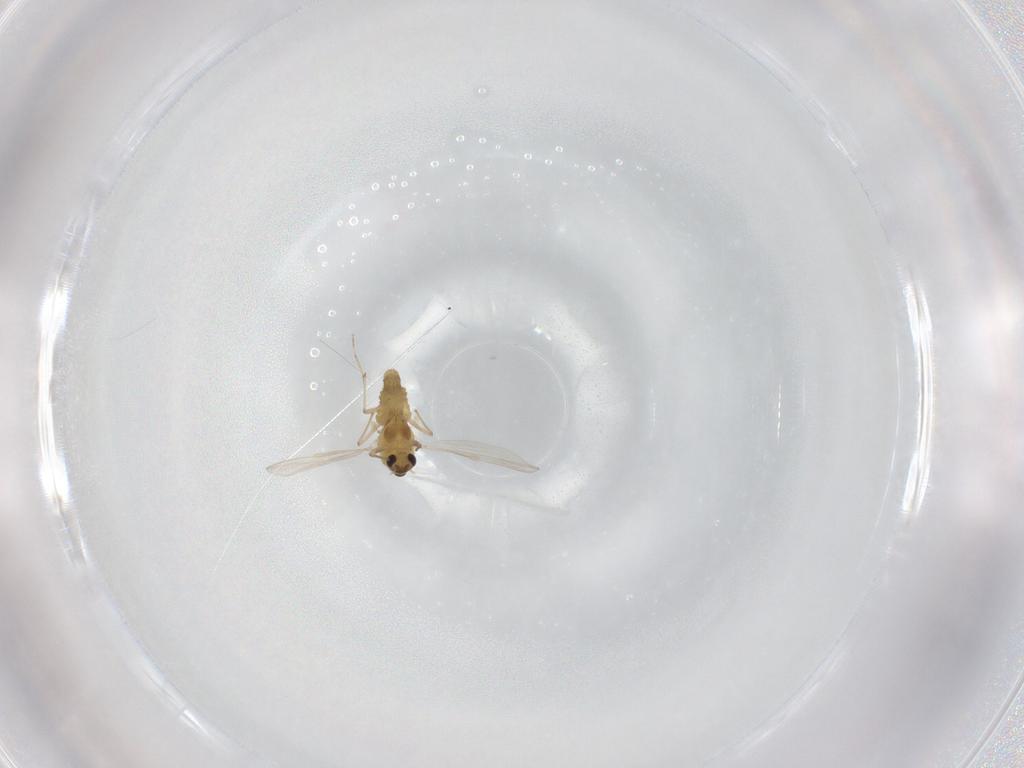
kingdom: Animalia
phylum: Arthropoda
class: Insecta
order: Diptera
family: Chironomidae
